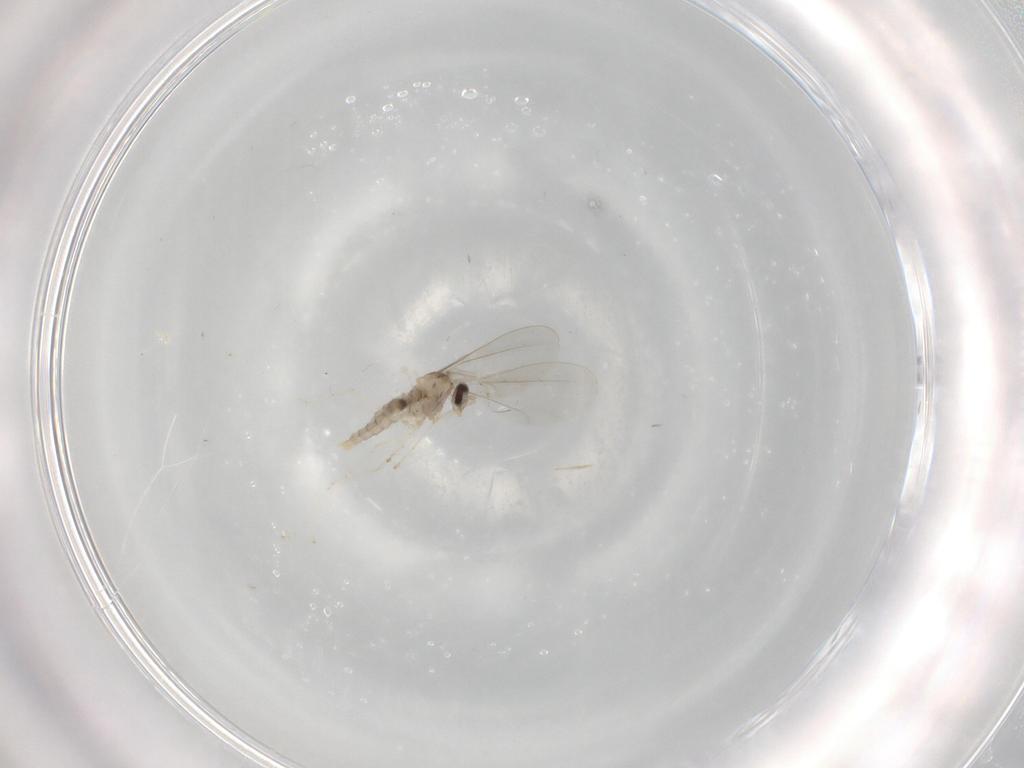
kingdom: Animalia
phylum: Arthropoda
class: Insecta
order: Diptera
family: Cecidomyiidae
